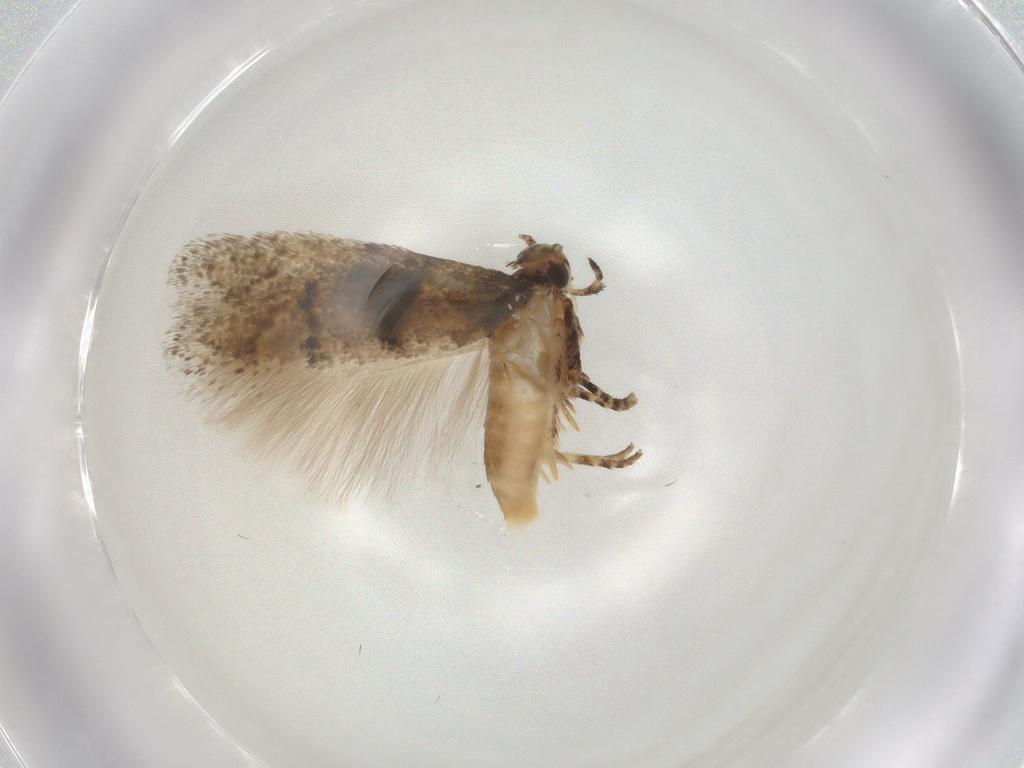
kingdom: Animalia
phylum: Arthropoda
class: Insecta
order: Lepidoptera
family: Gelechiidae
